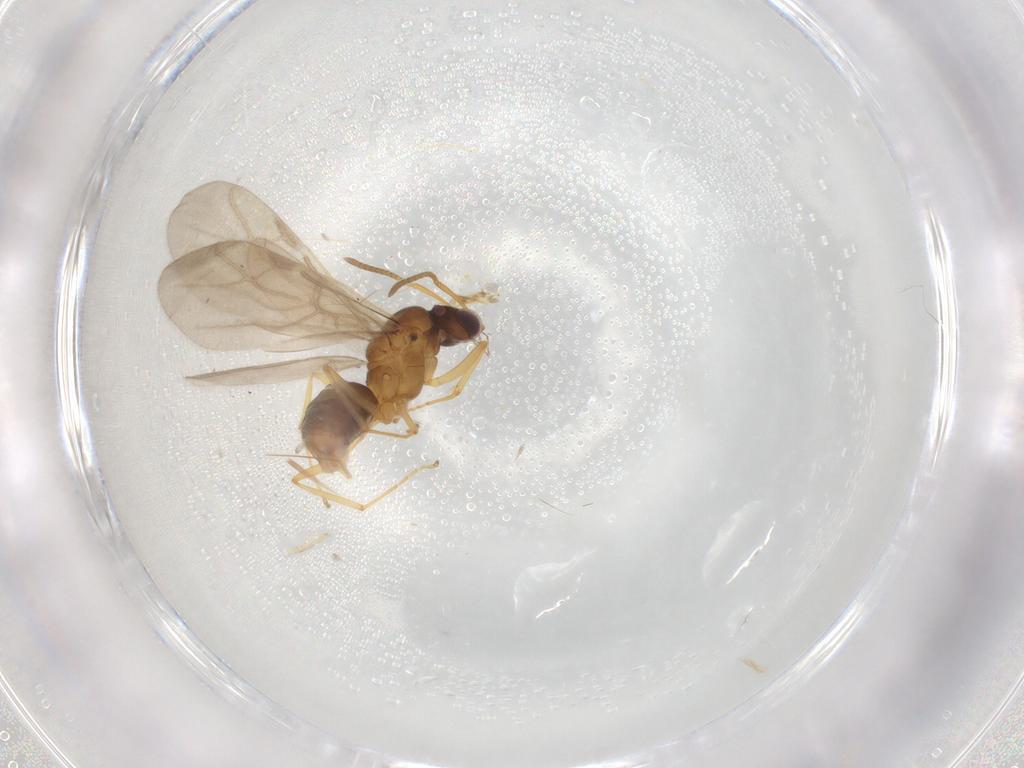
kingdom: Animalia
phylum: Arthropoda
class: Insecta
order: Hymenoptera
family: Formicidae
